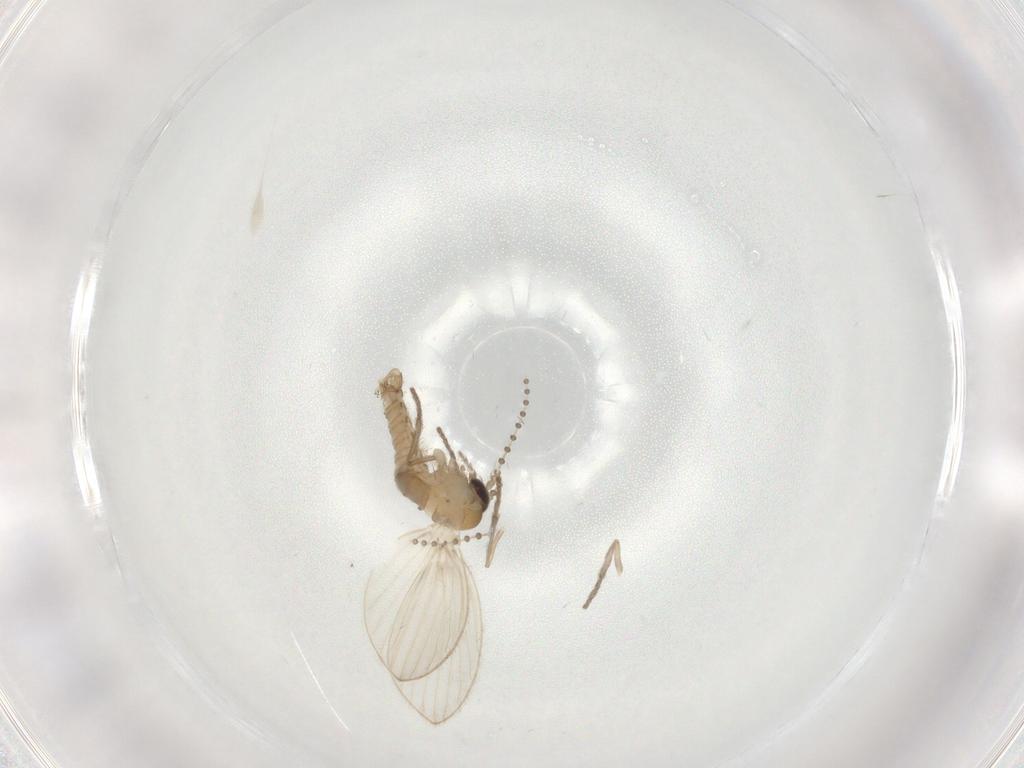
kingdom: Animalia
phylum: Arthropoda
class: Insecta
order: Diptera
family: Psychodidae
